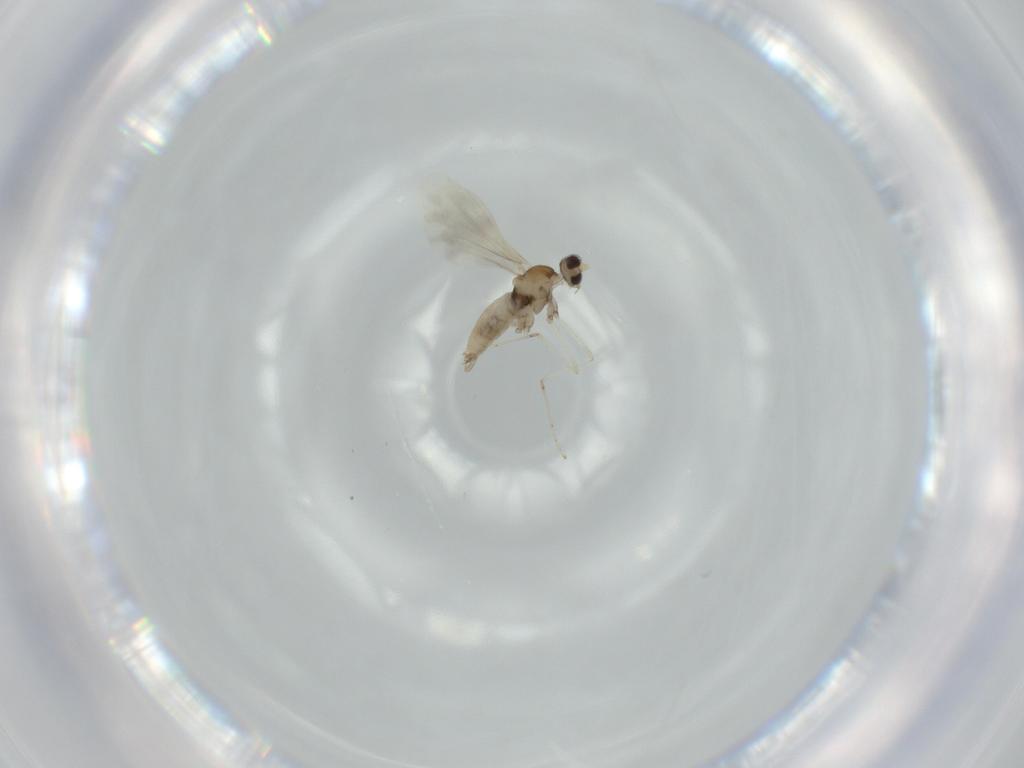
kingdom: Animalia
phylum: Arthropoda
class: Insecta
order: Diptera
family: Cecidomyiidae
